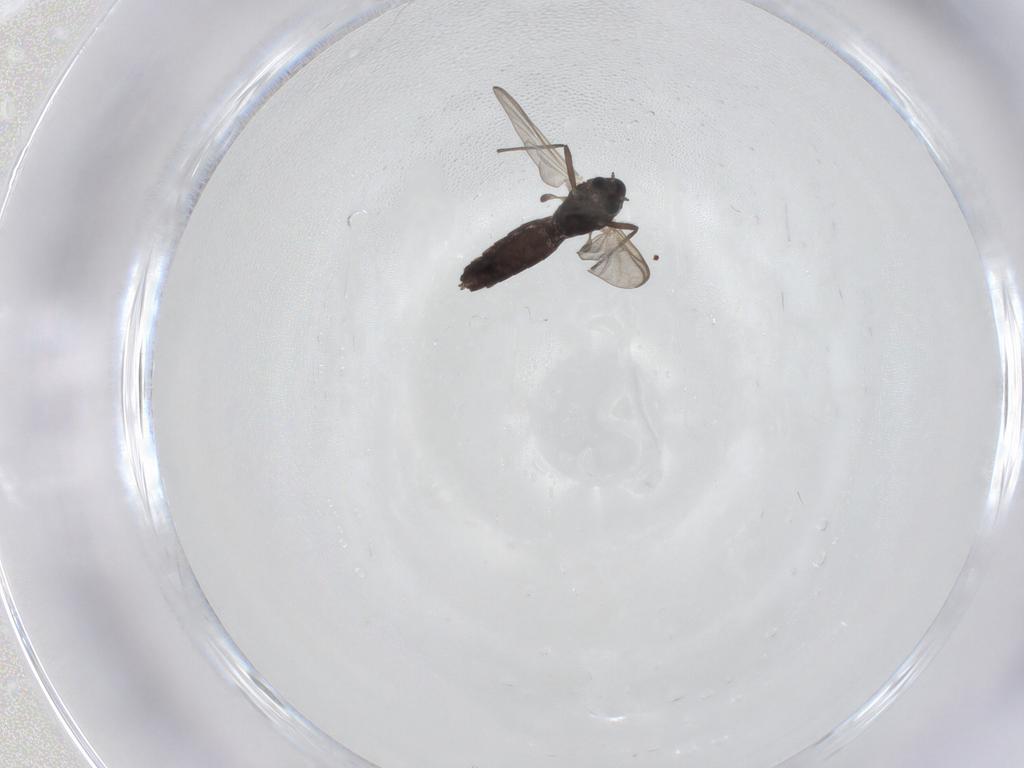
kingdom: Animalia
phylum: Arthropoda
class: Insecta
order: Diptera
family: Chironomidae
